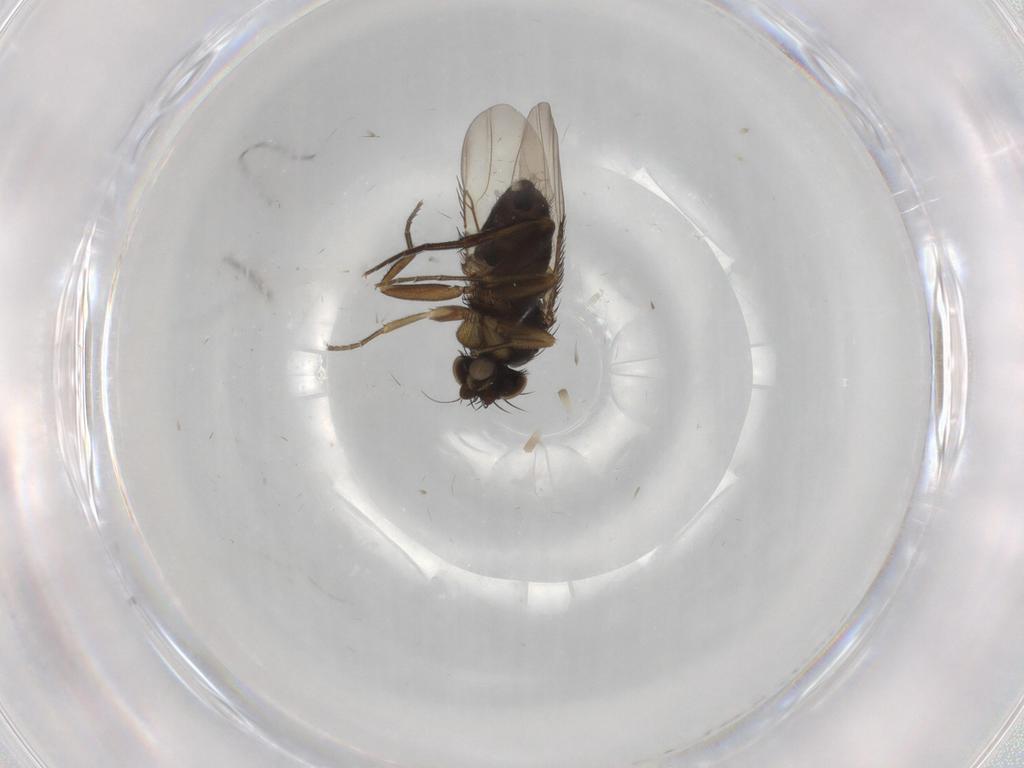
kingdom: Animalia
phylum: Arthropoda
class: Insecta
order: Diptera
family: Phoridae
